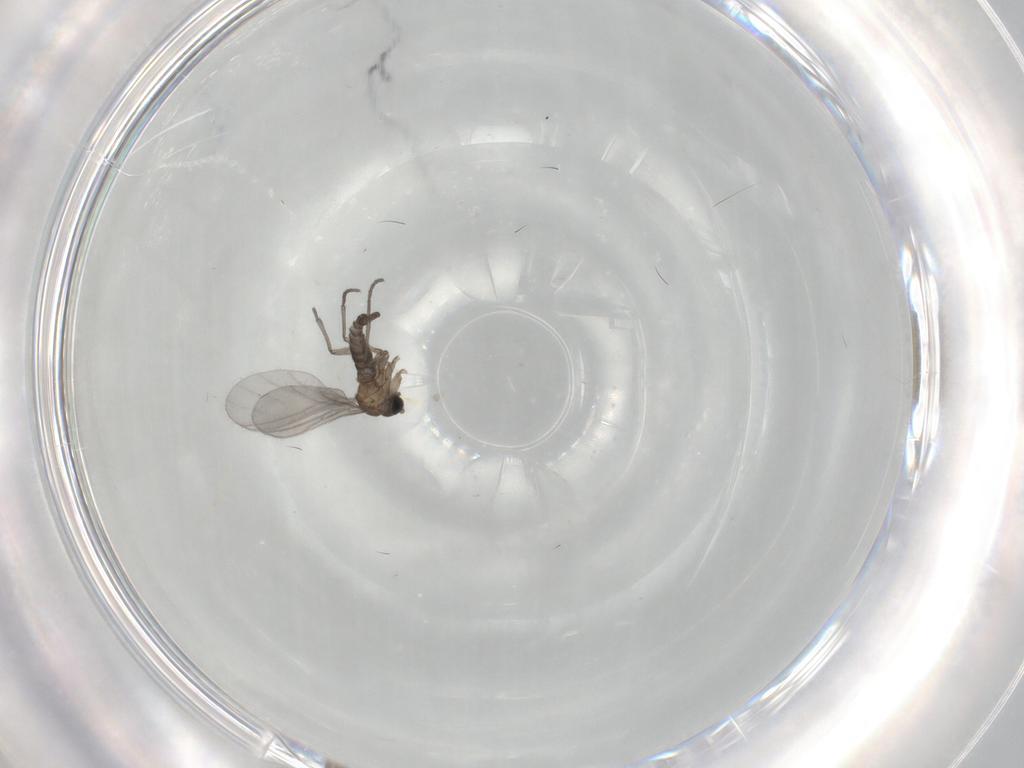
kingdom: Animalia
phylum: Arthropoda
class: Insecta
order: Diptera
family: Sciaridae
